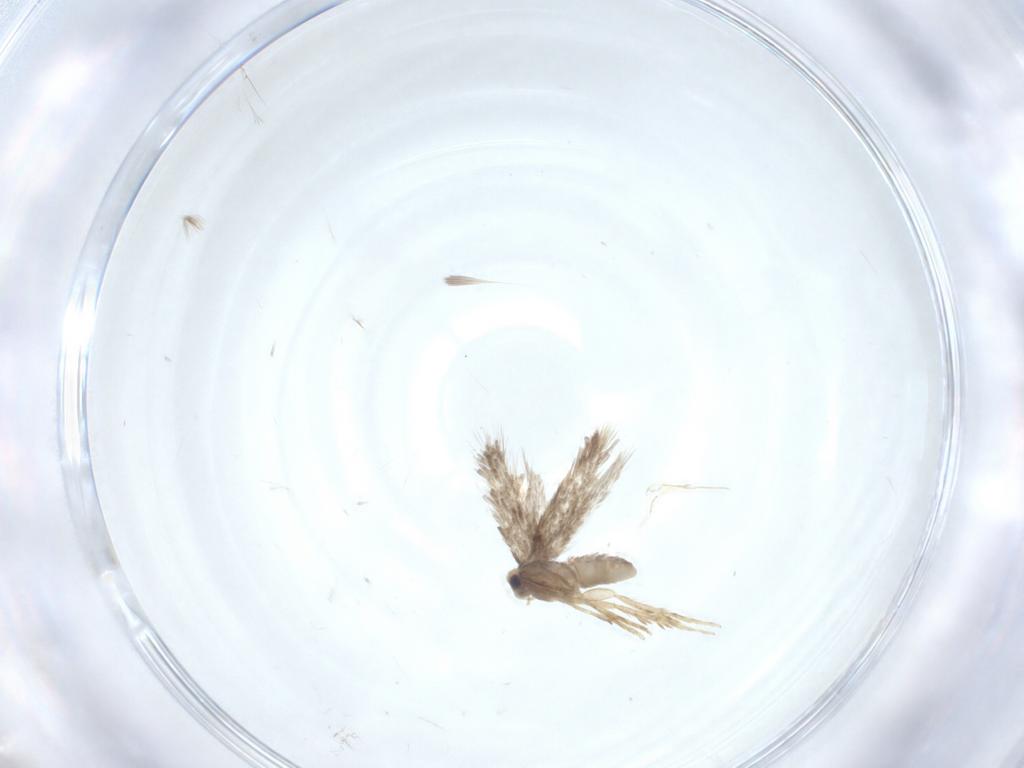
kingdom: Animalia
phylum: Arthropoda
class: Insecta
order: Lepidoptera
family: Nepticulidae
